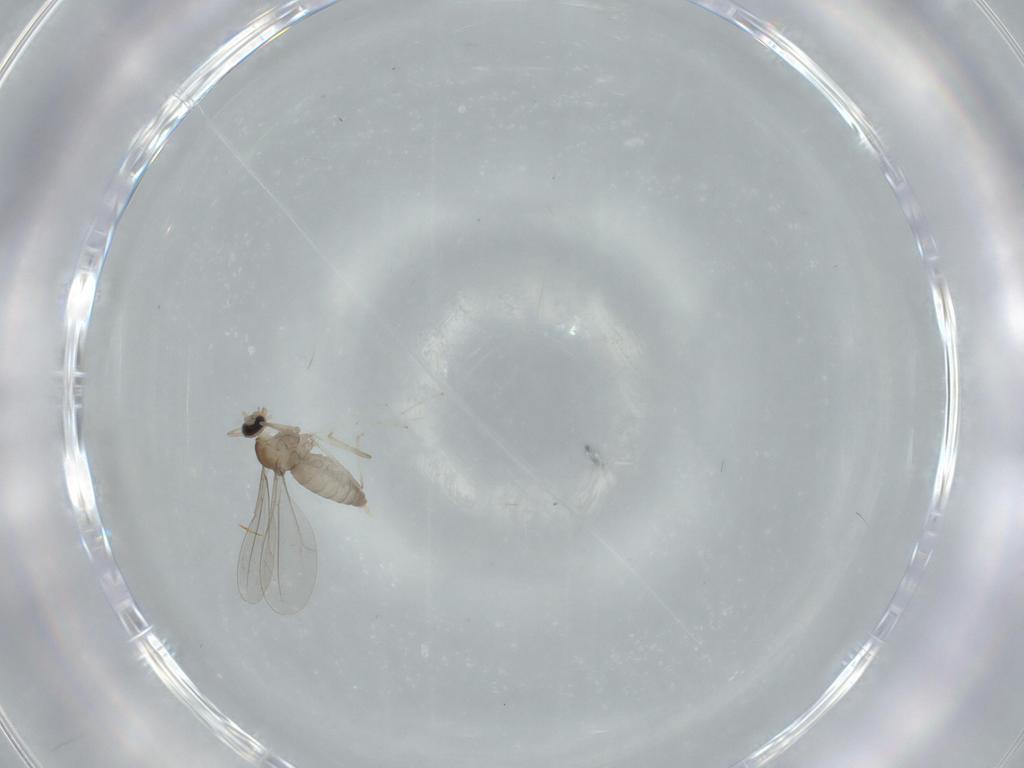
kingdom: Animalia
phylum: Arthropoda
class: Insecta
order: Diptera
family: Cecidomyiidae
